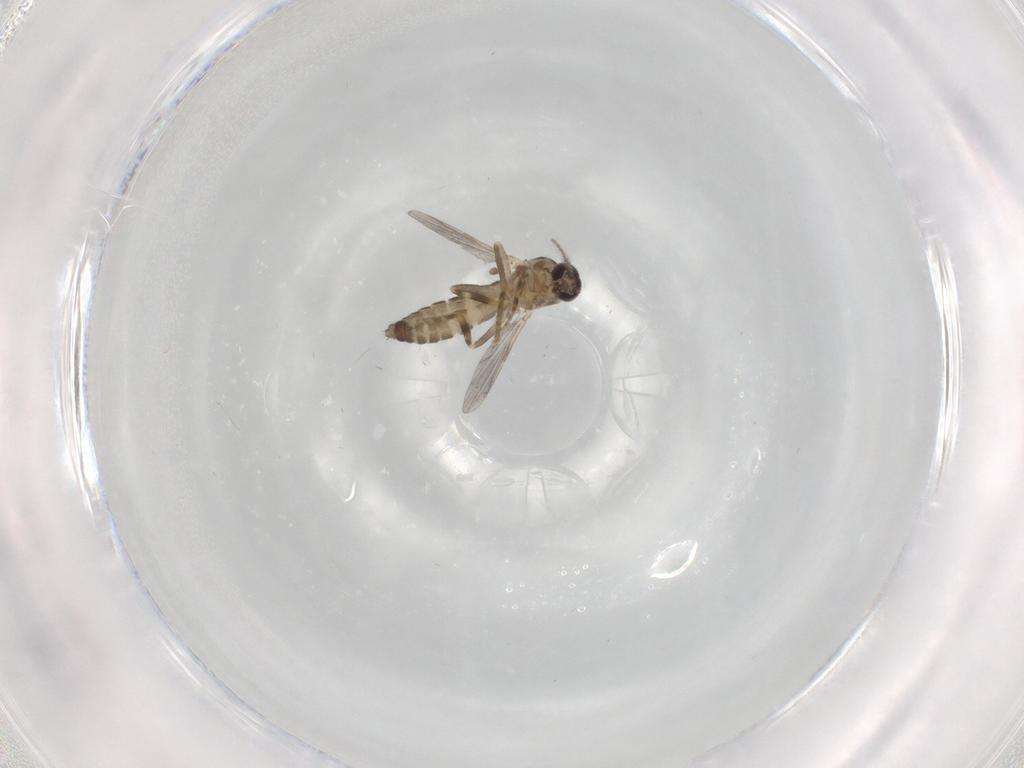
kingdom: Animalia
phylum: Arthropoda
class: Insecta
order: Diptera
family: Ceratopogonidae
